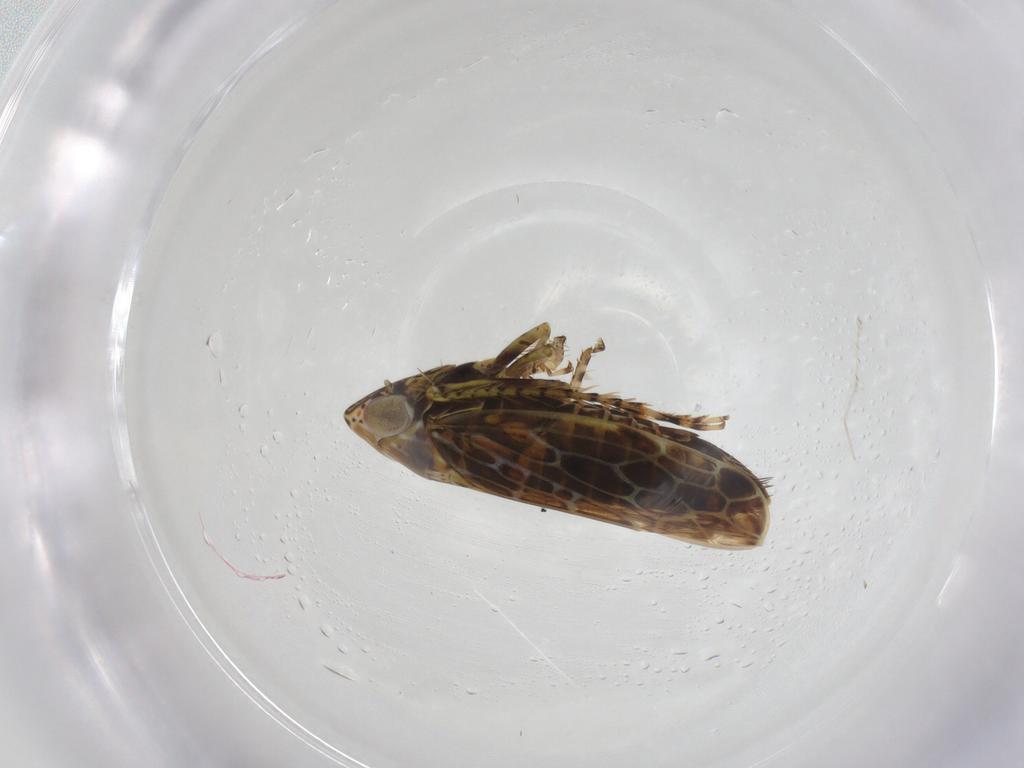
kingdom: Animalia
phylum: Arthropoda
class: Insecta
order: Hemiptera
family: Cicadellidae
